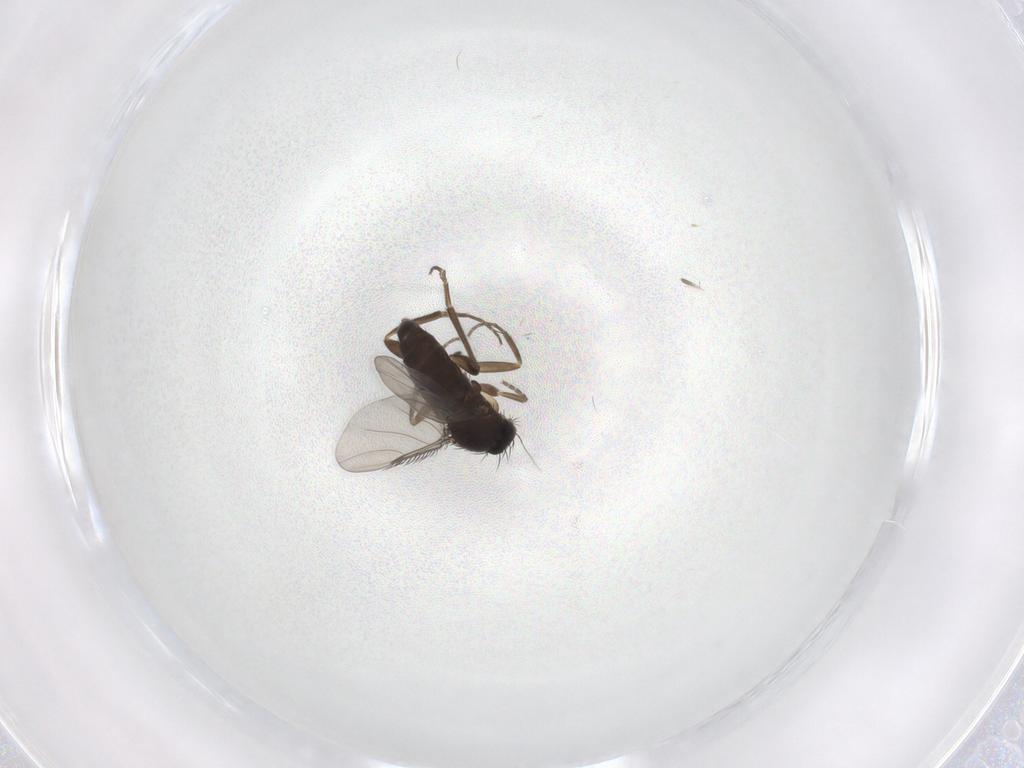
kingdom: Animalia
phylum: Arthropoda
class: Insecta
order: Diptera
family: Phoridae
